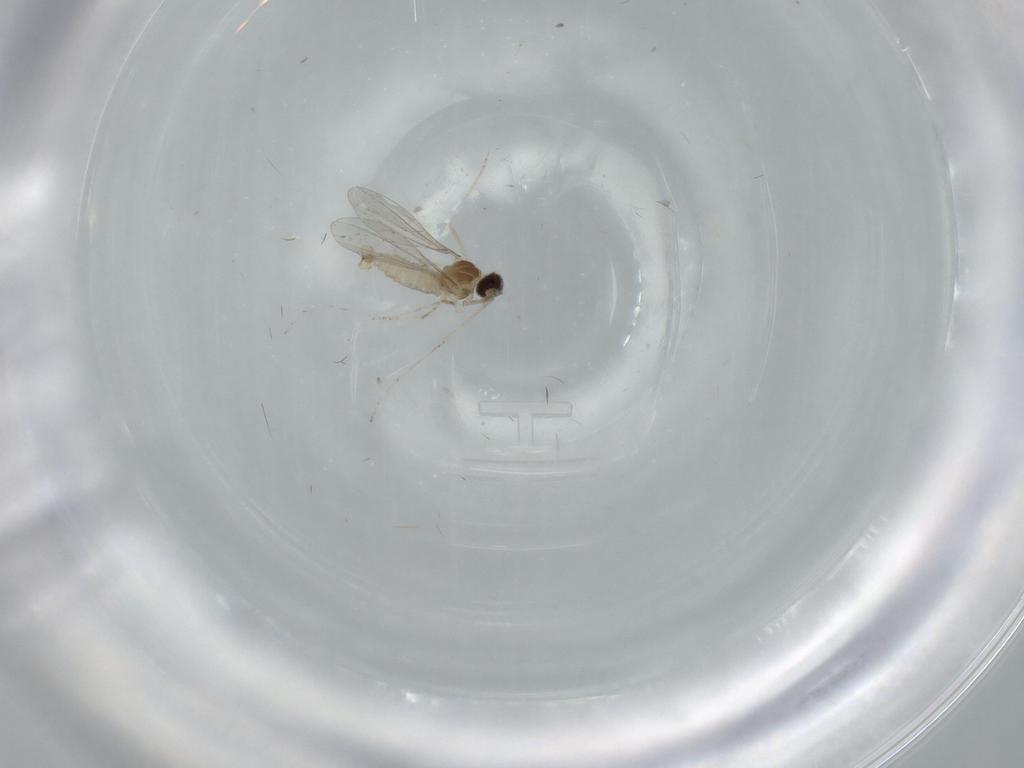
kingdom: Animalia
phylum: Arthropoda
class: Insecta
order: Diptera
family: Cecidomyiidae
